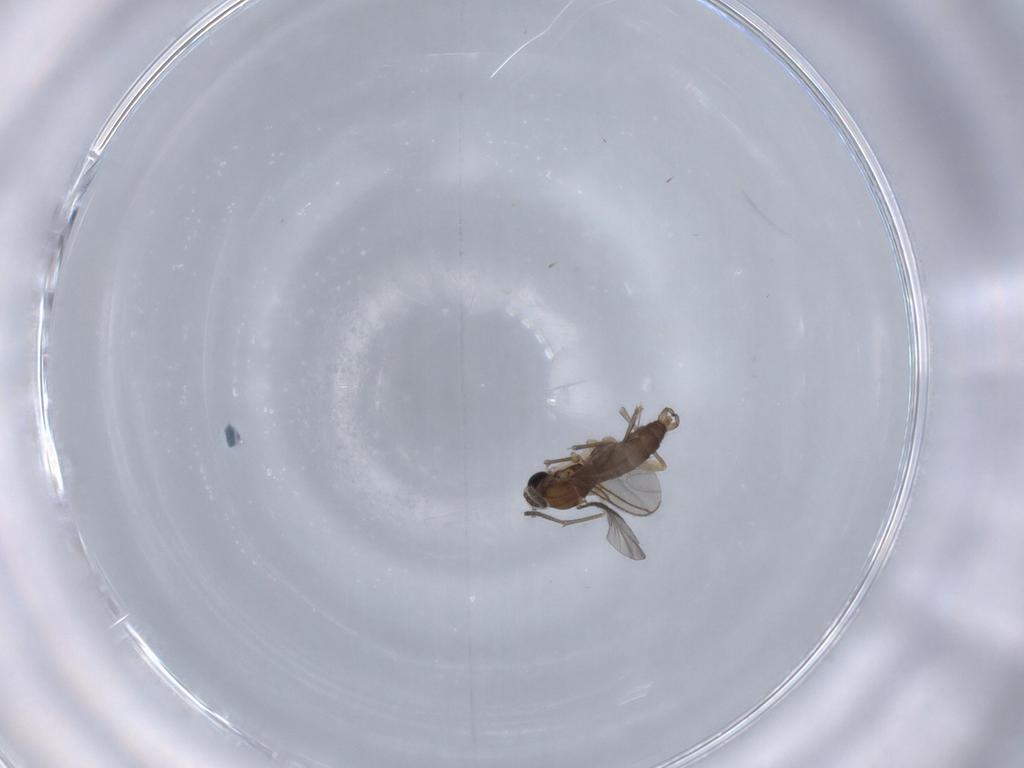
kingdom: Animalia
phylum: Arthropoda
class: Insecta
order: Diptera
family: Sciaridae
